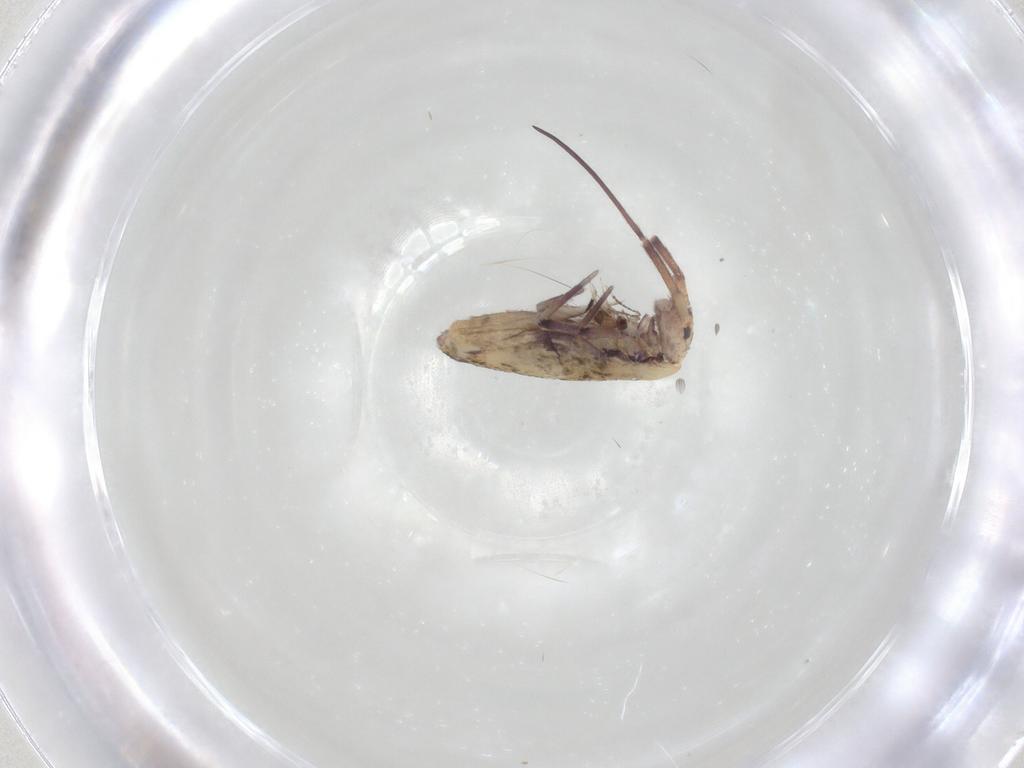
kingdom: Animalia
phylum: Arthropoda
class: Collembola
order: Entomobryomorpha
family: Entomobryidae
